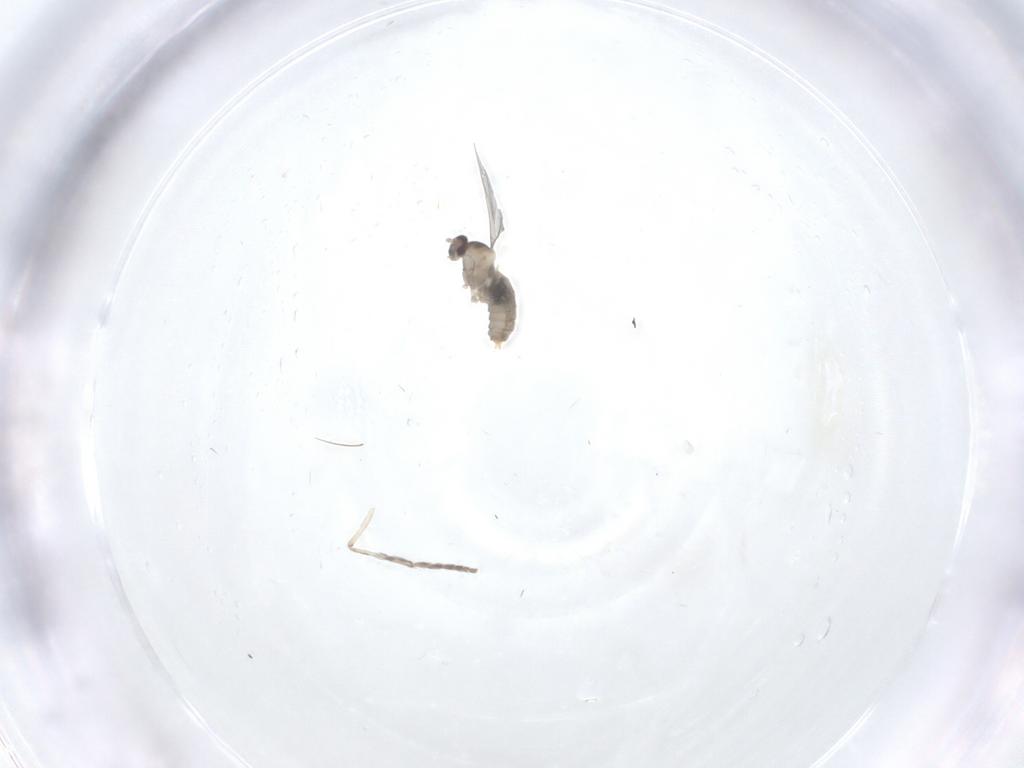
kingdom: Animalia
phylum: Arthropoda
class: Insecta
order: Diptera
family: Cecidomyiidae
